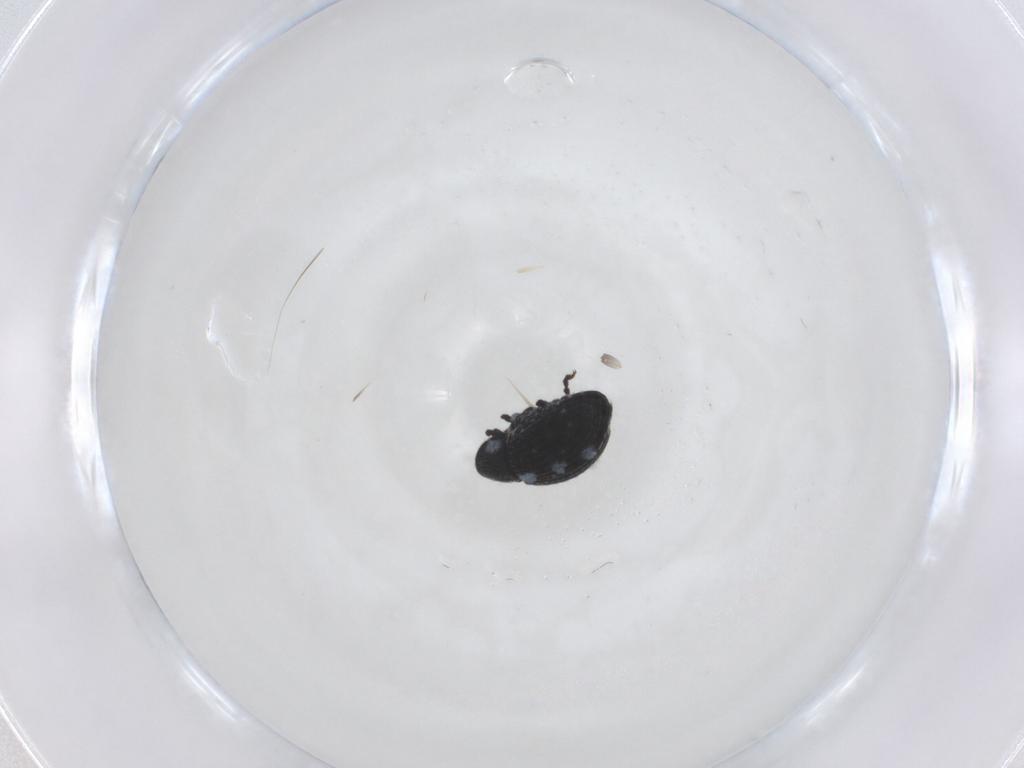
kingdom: Animalia
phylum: Arthropoda
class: Insecta
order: Coleoptera
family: Brentidae
